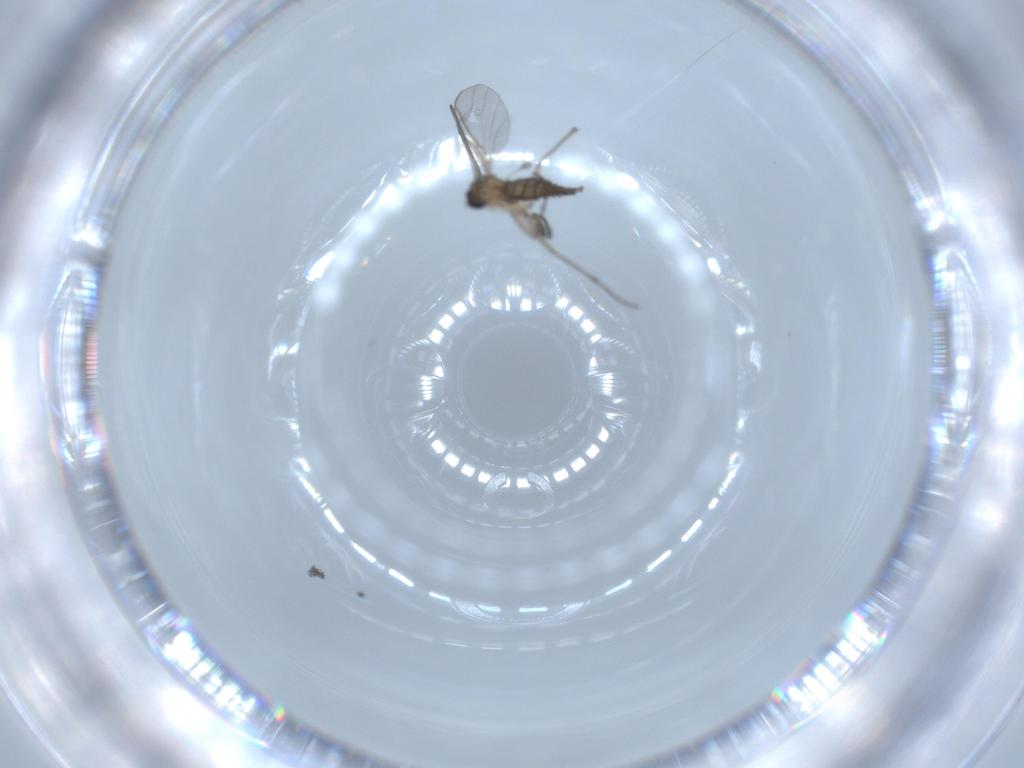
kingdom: Animalia
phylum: Arthropoda
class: Insecta
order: Diptera
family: Sciaridae
